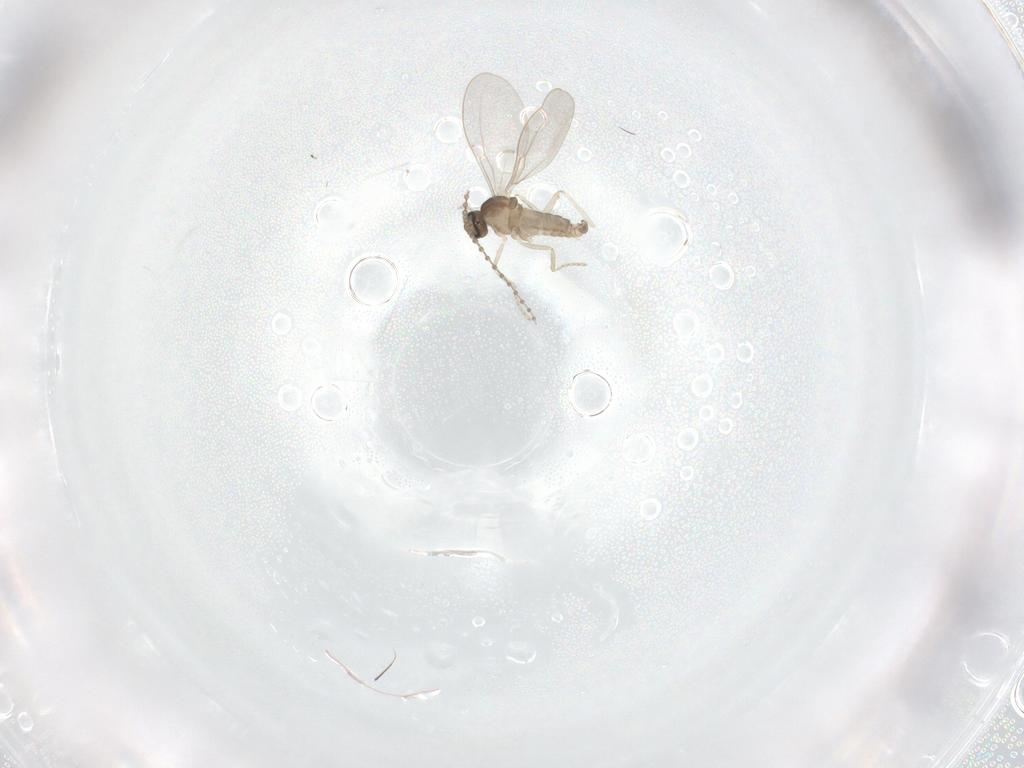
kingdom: Animalia
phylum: Arthropoda
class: Insecta
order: Diptera
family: Cecidomyiidae
